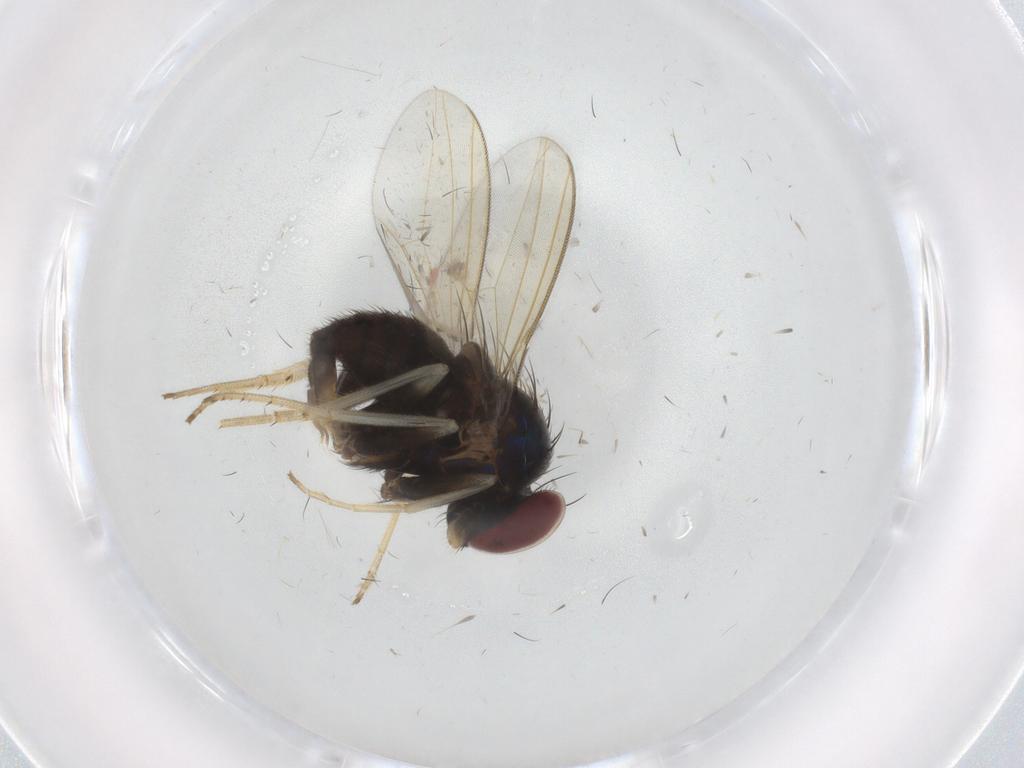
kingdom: Animalia
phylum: Arthropoda
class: Insecta
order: Diptera
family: Dolichopodidae
